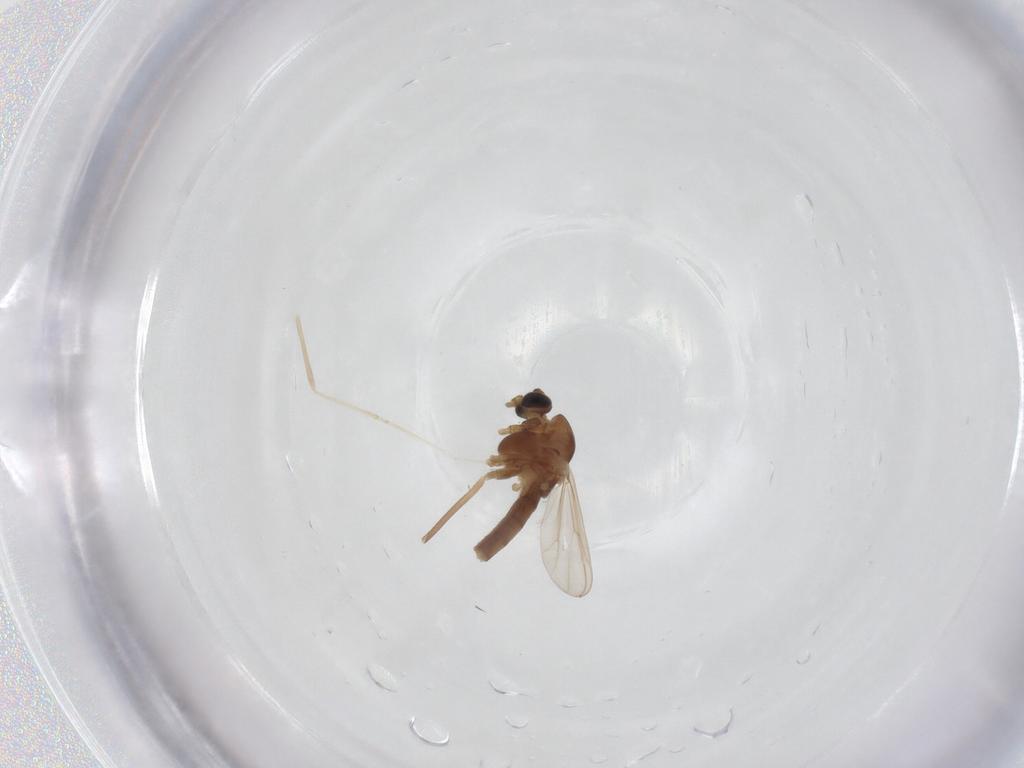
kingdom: Animalia
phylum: Arthropoda
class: Insecta
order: Diptera
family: Chironomidae
